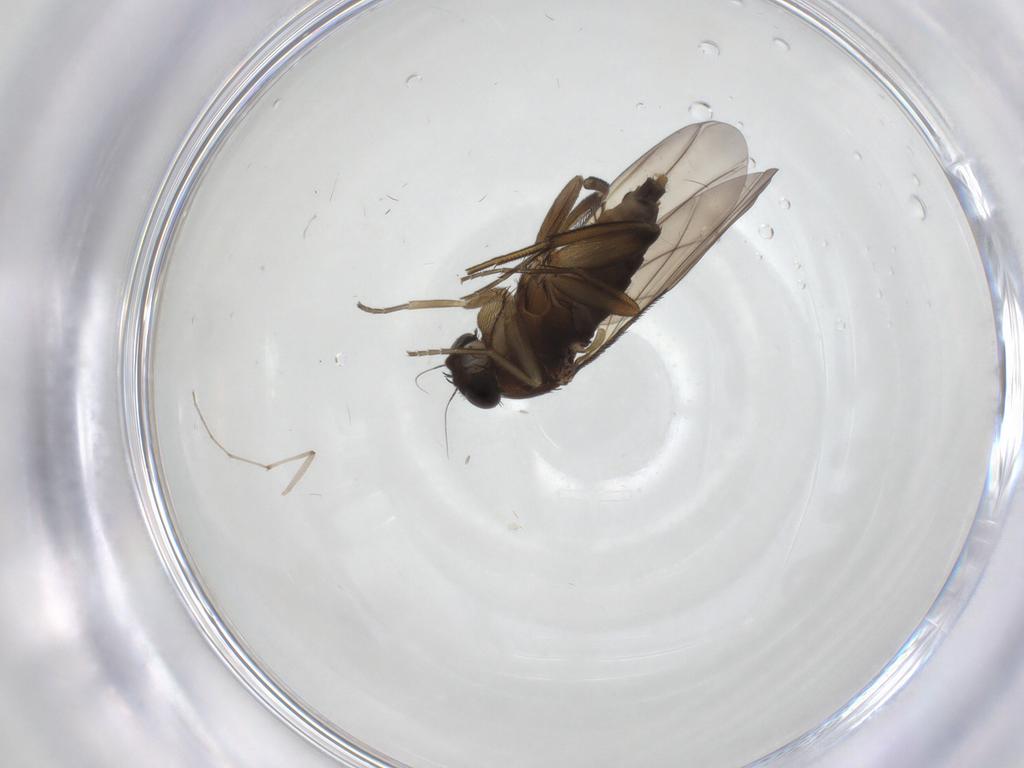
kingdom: Animalia
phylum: Arthropoda
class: Insecta
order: Diptera
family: Phoridae
